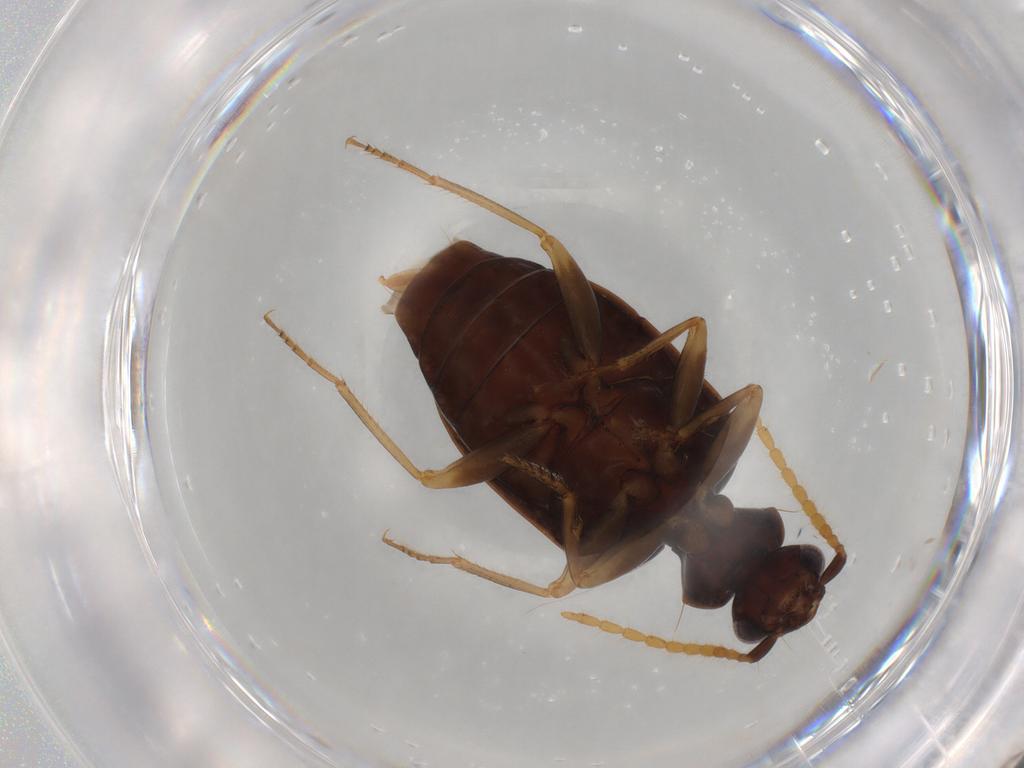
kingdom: Animalia
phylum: Arthropoda
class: Insecta
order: Coleoptera
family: Carabidae
